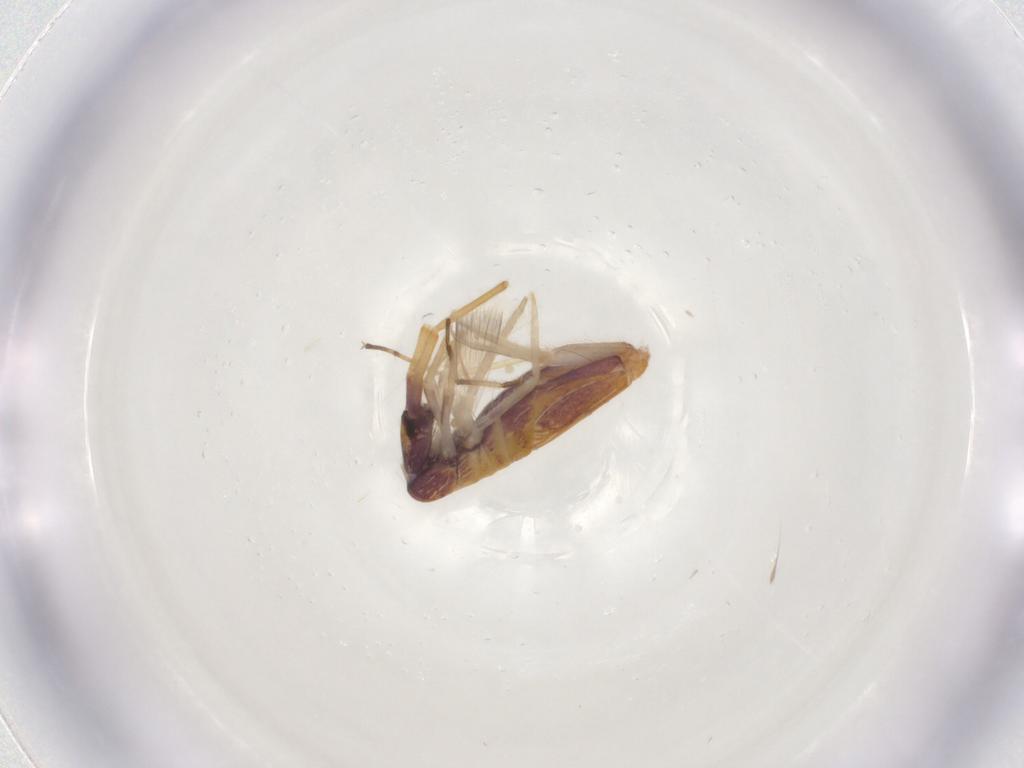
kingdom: Animalia
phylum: Arthropoda
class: Collembola
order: Entomobryomorpha
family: Entomobryidae
